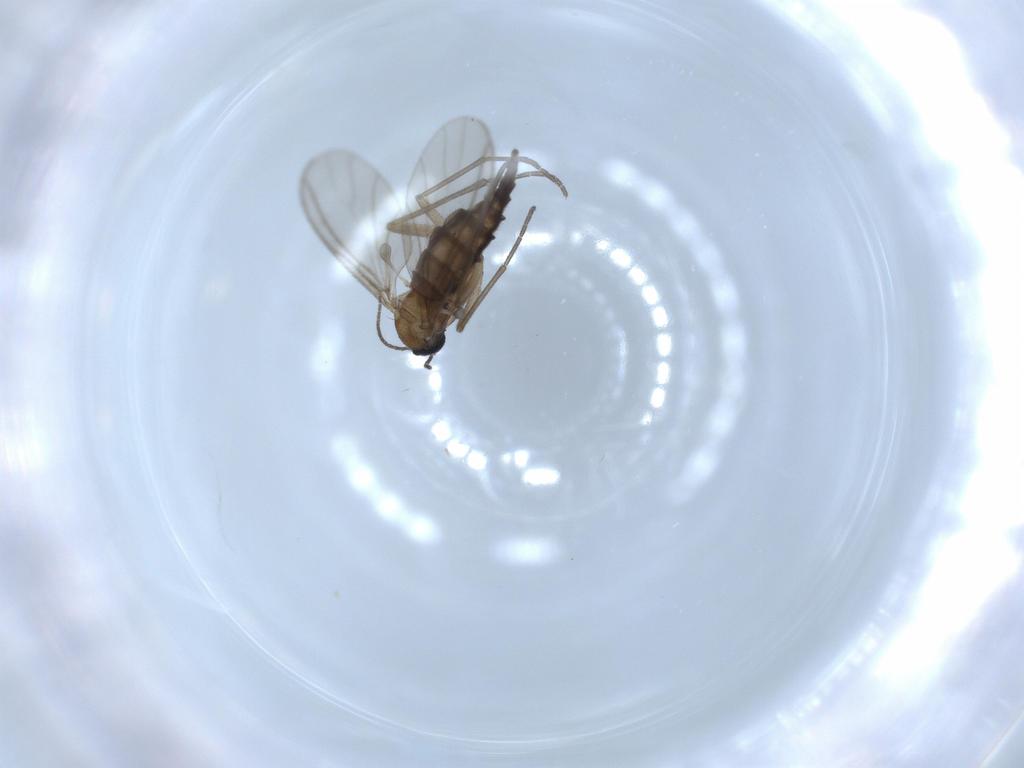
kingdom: Animalia
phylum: Arthropoda
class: Insecta
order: Diptera
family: Sciaridae
